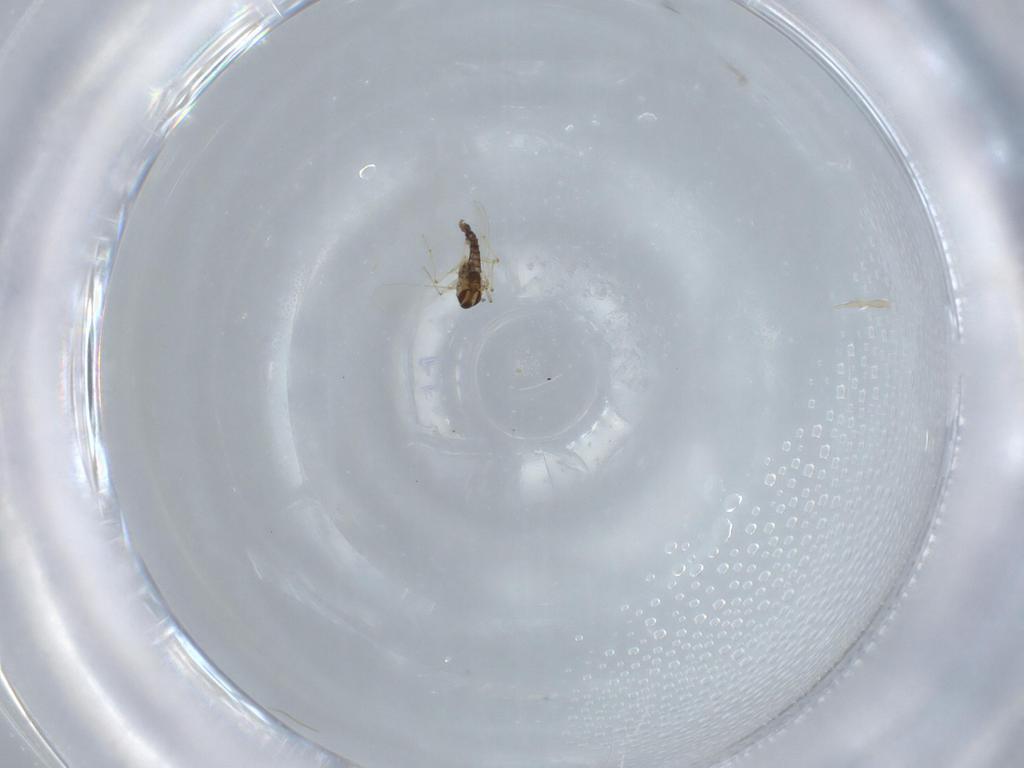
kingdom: Animalia
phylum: Arthropoda
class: Insecta
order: Diptera
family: Chironomidae
